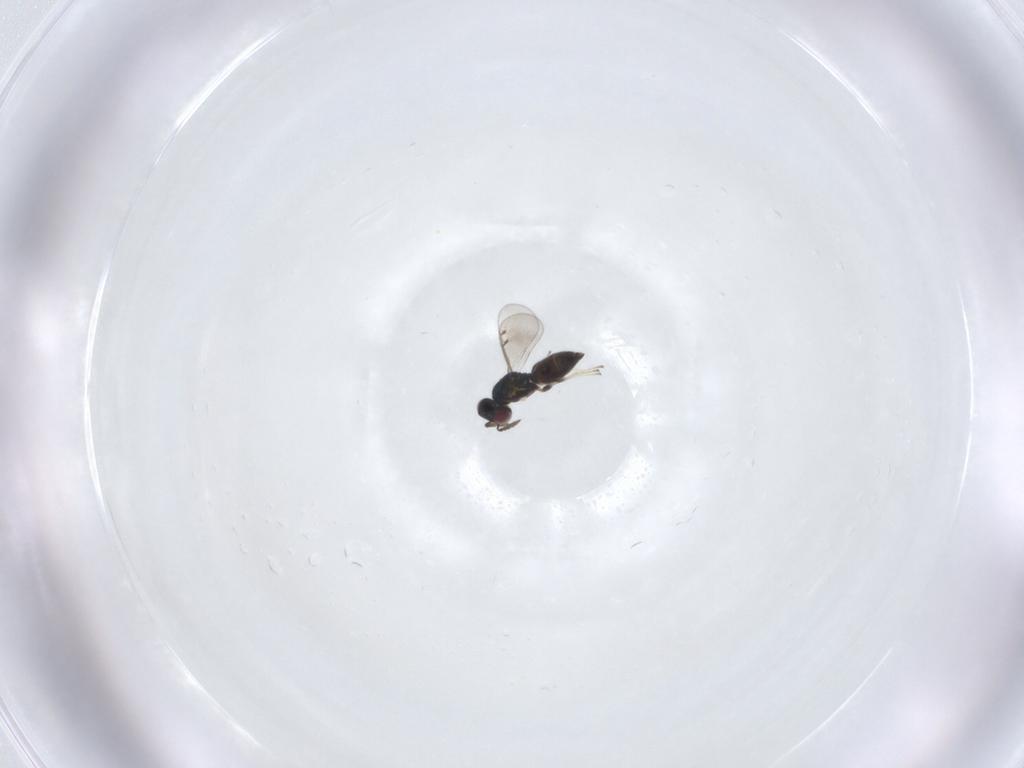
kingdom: Animalia
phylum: Arthropoda
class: Insecta
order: Hymenoptera
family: Eulophidae
